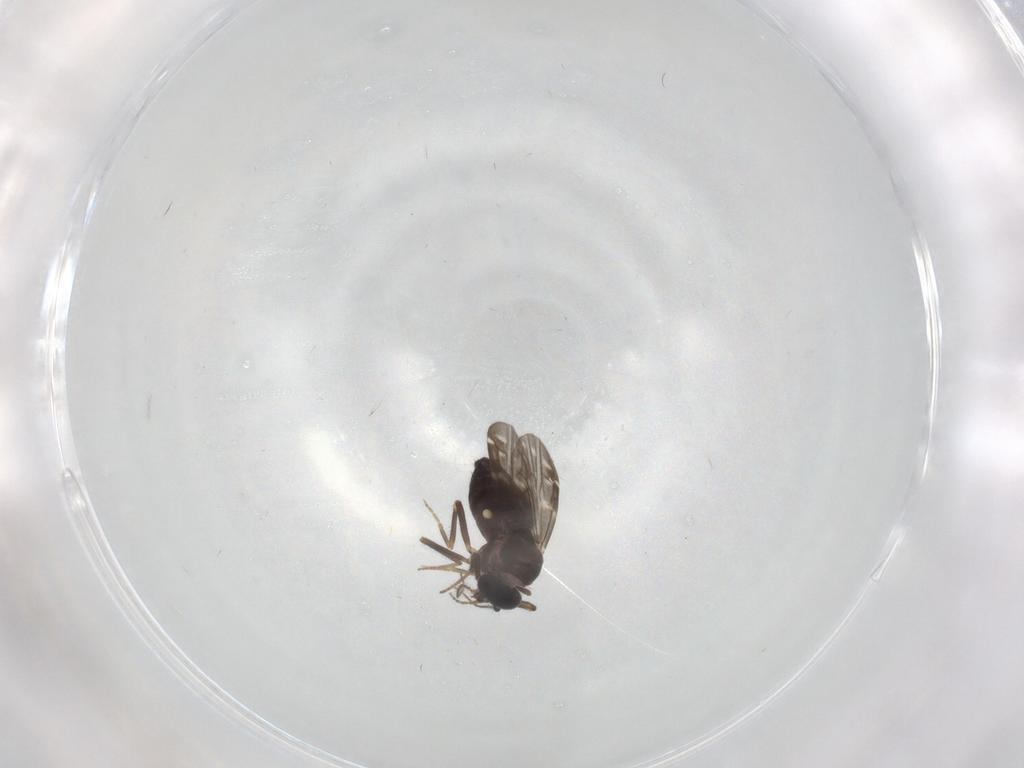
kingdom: Animalia
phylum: Arthropoda
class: Insecta
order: Diptera
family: Ceratopogonidae
